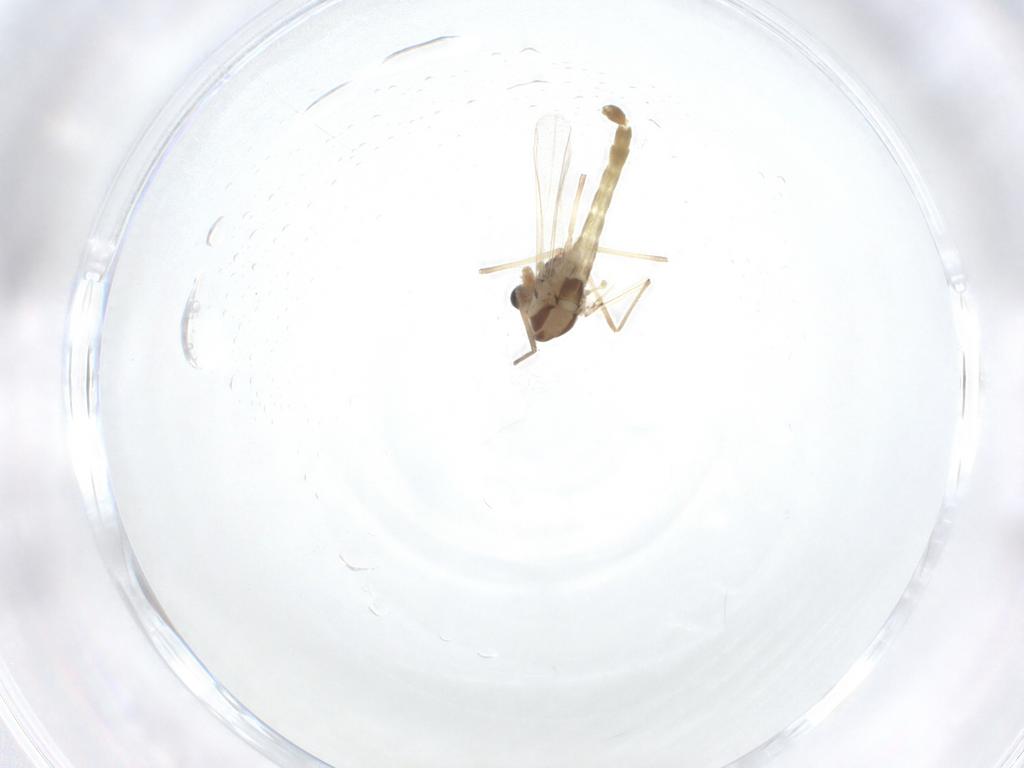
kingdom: Animalia
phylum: Arthropoda
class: Insecta
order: Diptera
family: Chironomidae
